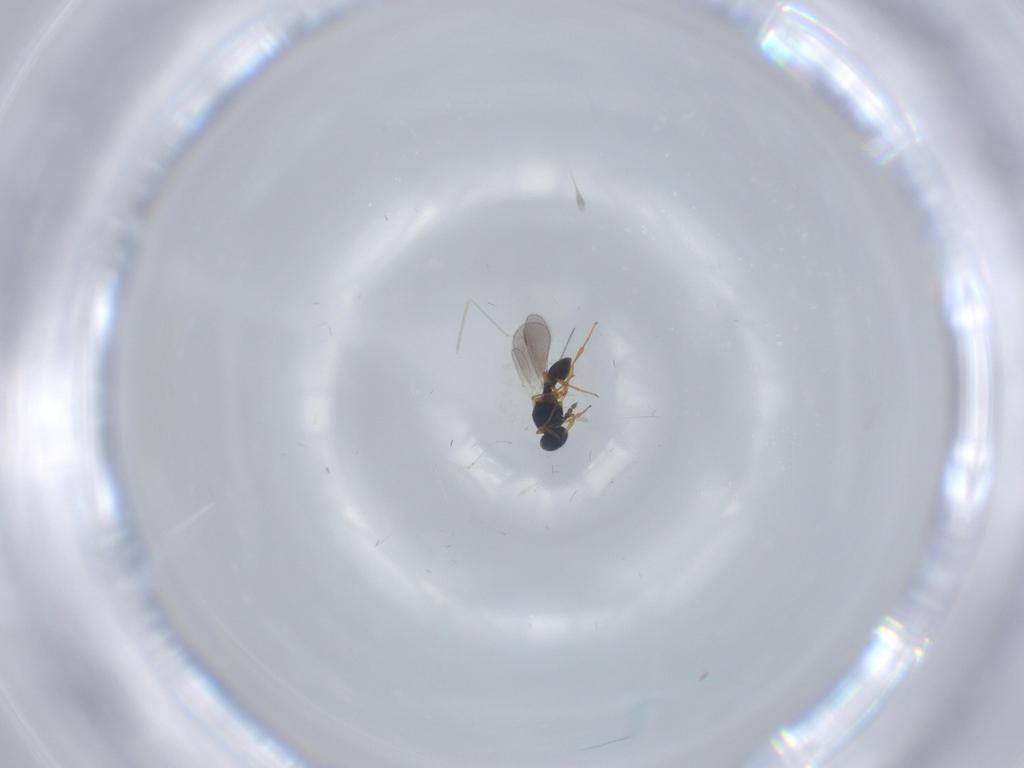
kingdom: Animalia
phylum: Arthropoda
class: Insecta
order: Hymenoptera
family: Platygastridae
